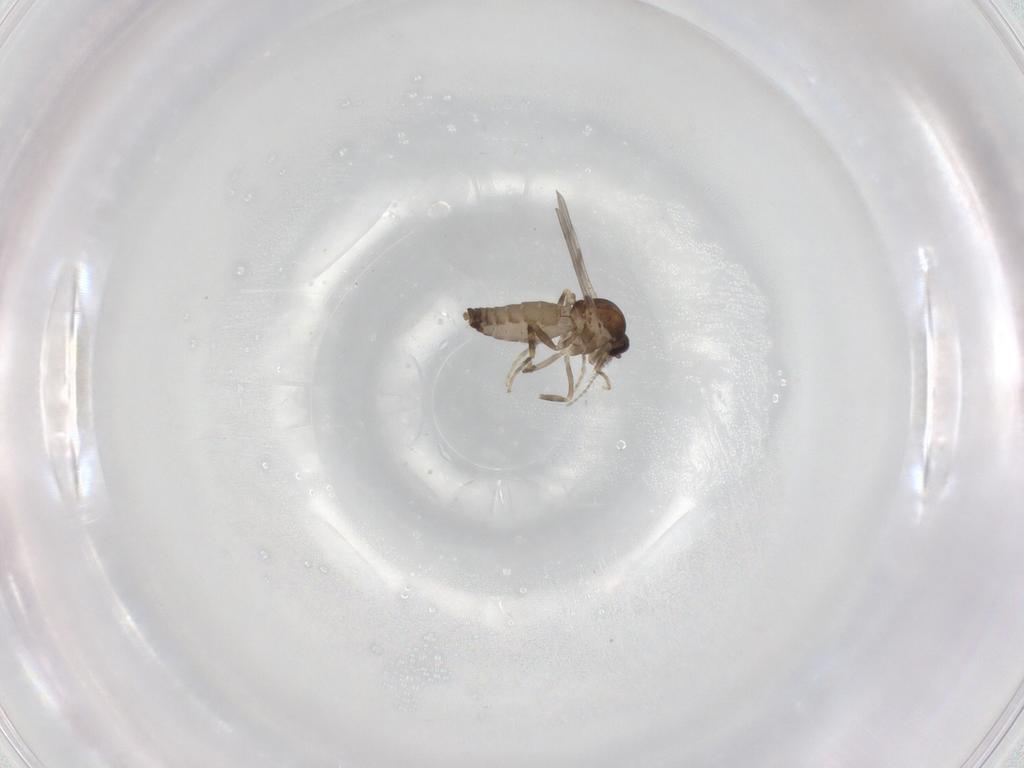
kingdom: Animalia
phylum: Arthropoda
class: Insecta
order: Diptera
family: Ceratopogonidae
